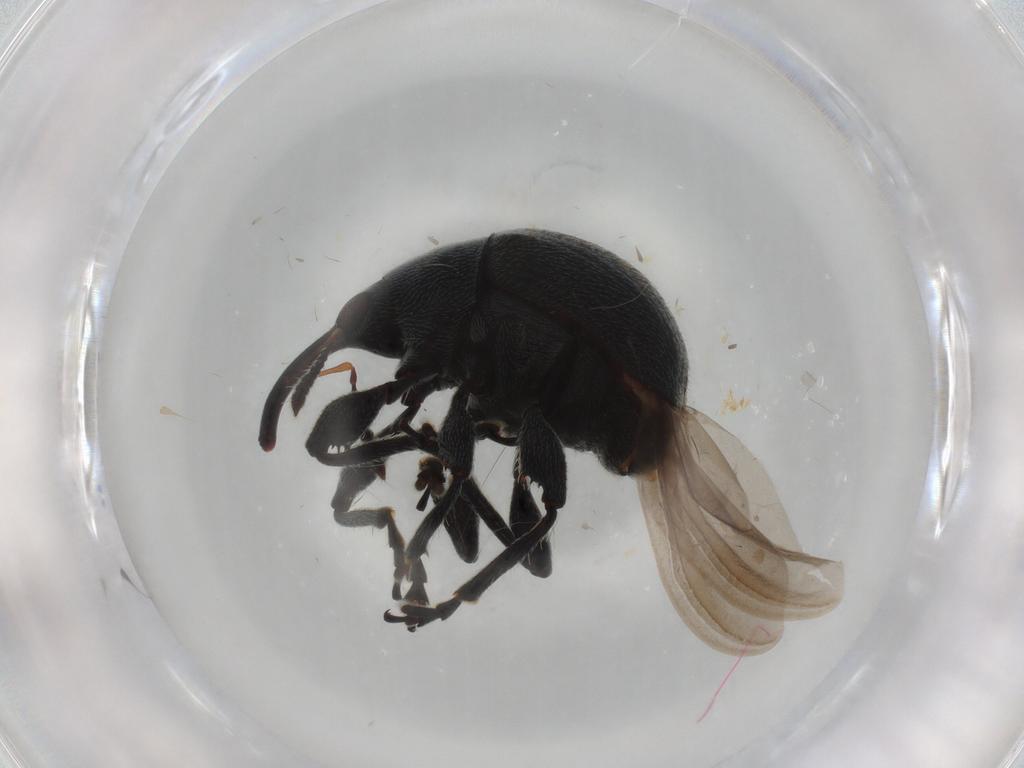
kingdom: Animalia
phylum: Arthropoda
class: Insecta
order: Coleoptera
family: Brentidae
